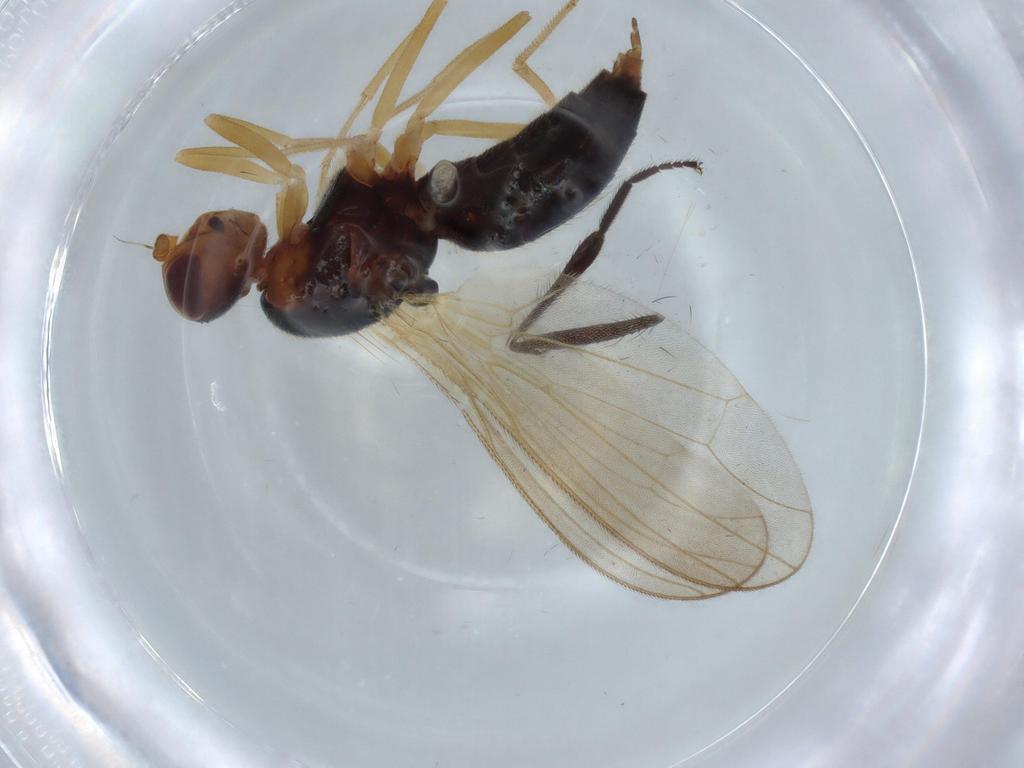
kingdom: Animalia
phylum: Arthropoda
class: Insecta
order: Diptera
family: Hybotidae
